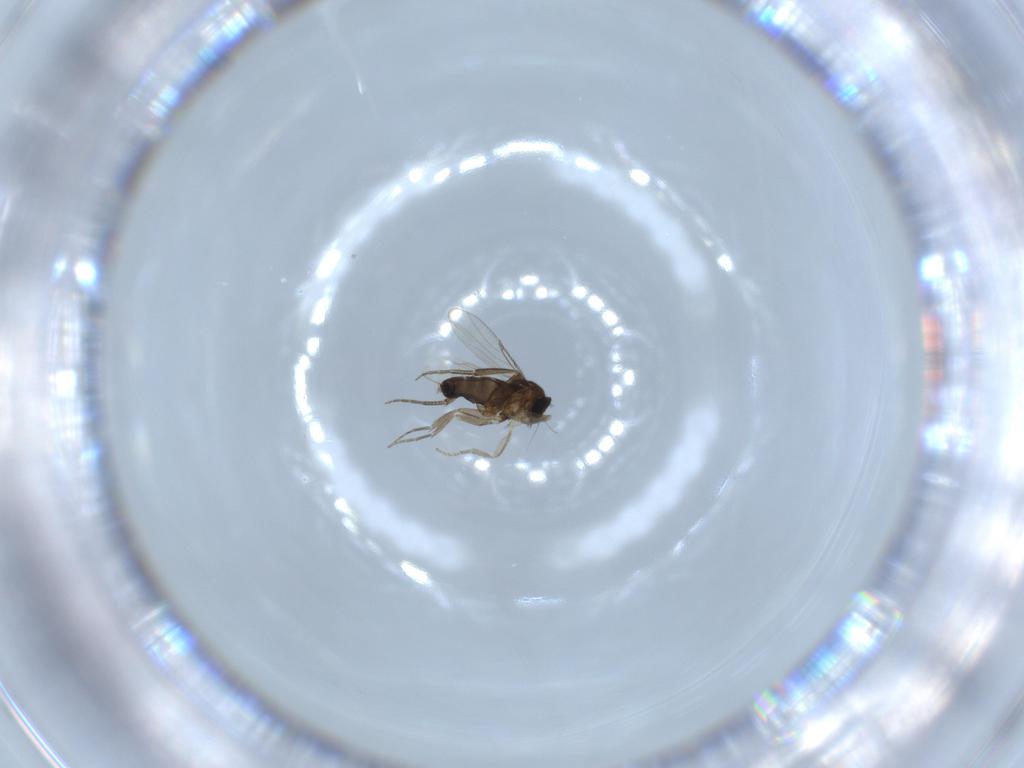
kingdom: Animalia
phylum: Arthropoda
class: Insecta
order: Diptera
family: Phoridae
